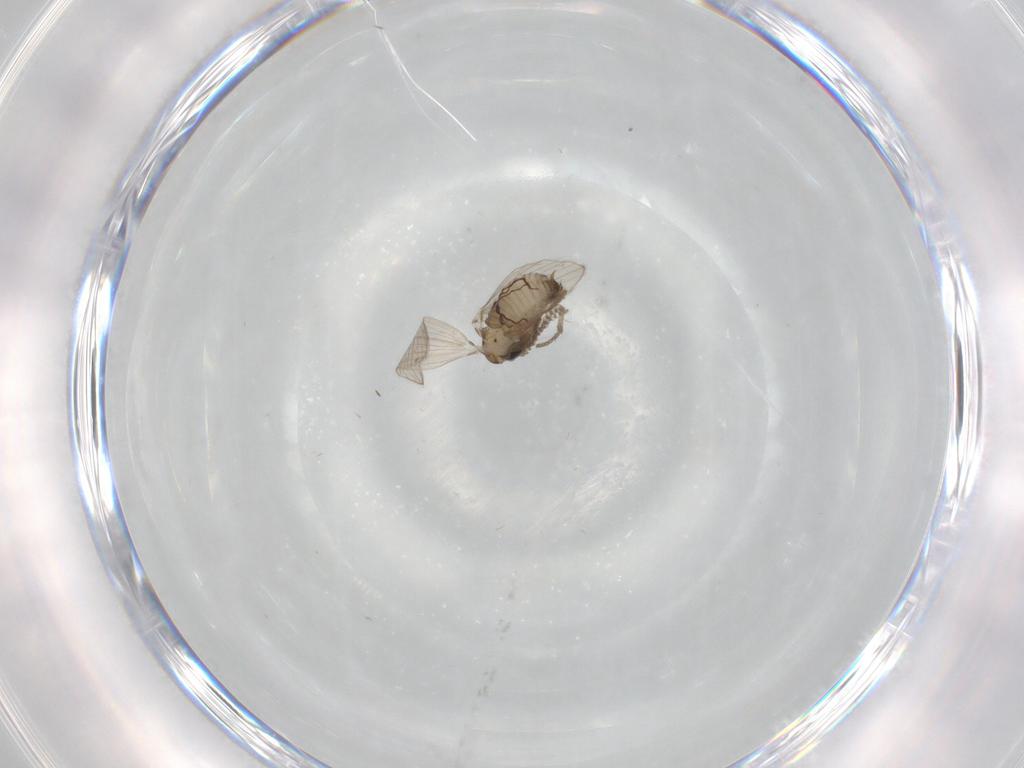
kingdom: Animalia
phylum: Arthropoda
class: Insecta
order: Diptera
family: Psychodidae
